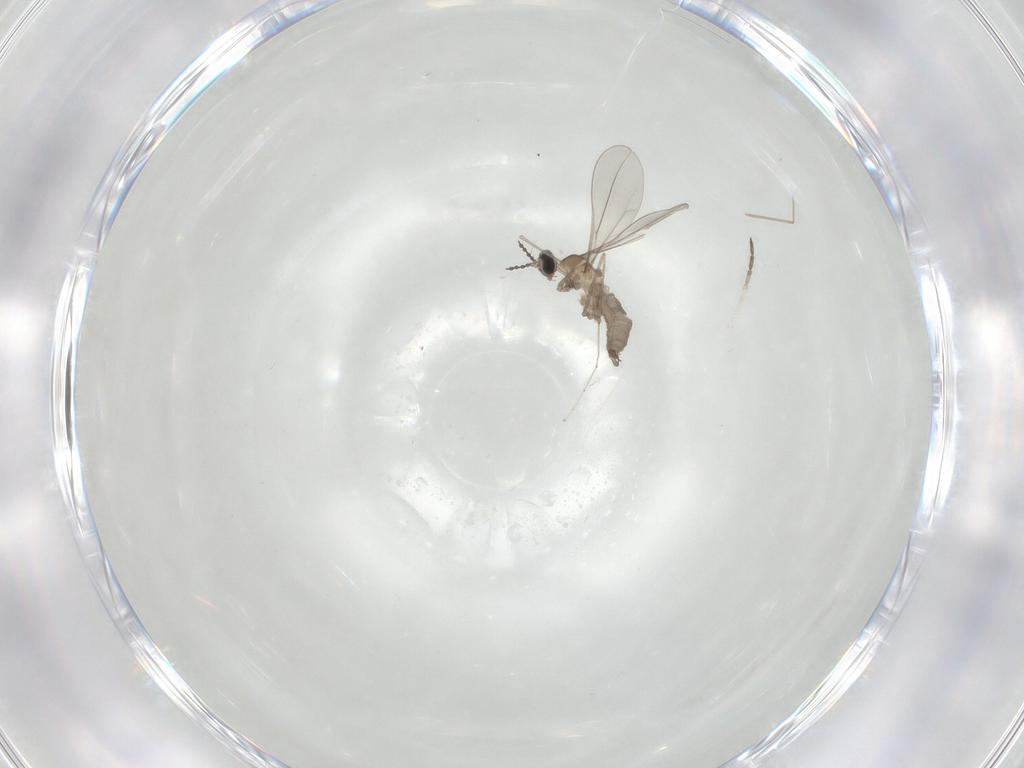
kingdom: Animalia
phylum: Arthropoda
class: Insecta
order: Diptera
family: Cecidomyiidae
